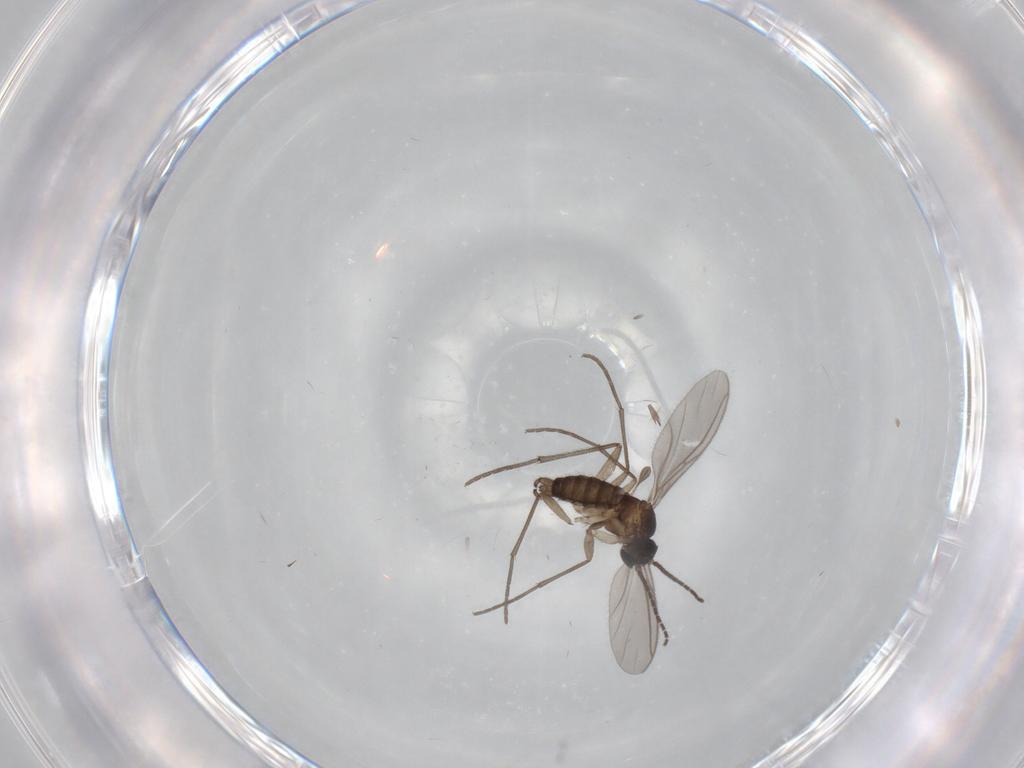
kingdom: Animalia
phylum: Arthropoda
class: Insecta
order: Diptera
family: Sciaridae
